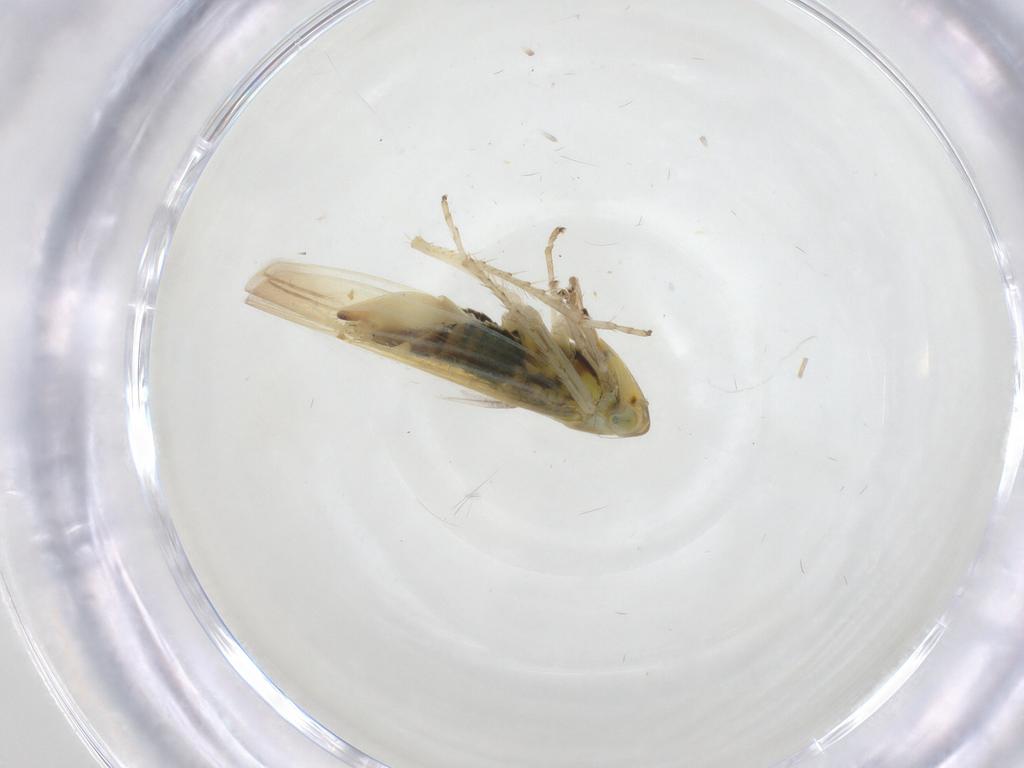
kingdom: Animalia
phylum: Arthropoda
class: Insecta
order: Hemiptera
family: Cicadellidae
